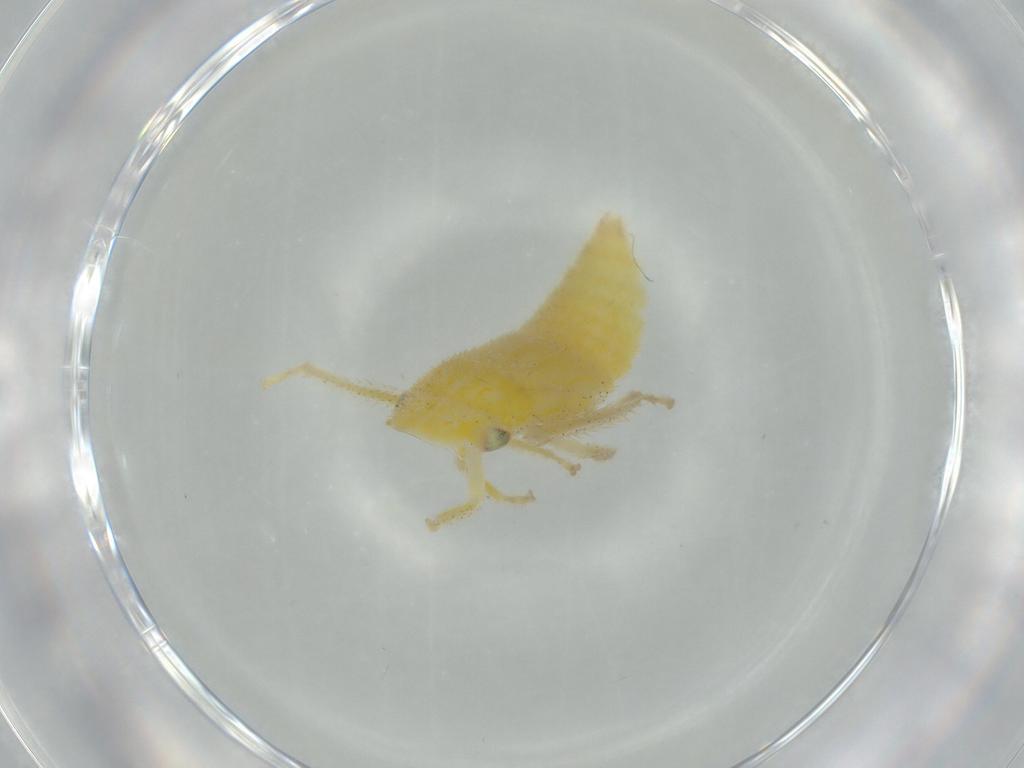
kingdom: Animalia
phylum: Arthropoda
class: Insecta
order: Hemiptera
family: Cicadellidae
